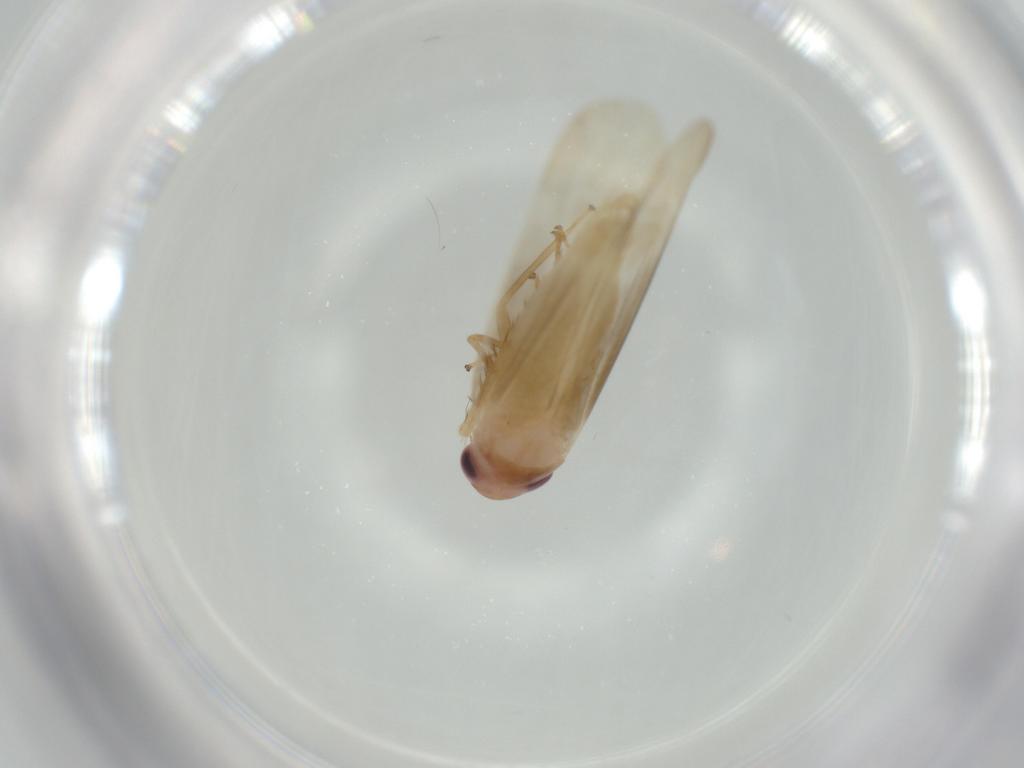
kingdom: Animalia
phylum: Arthropoda
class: Insecta
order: Hemiptera
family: Cicadellidae
